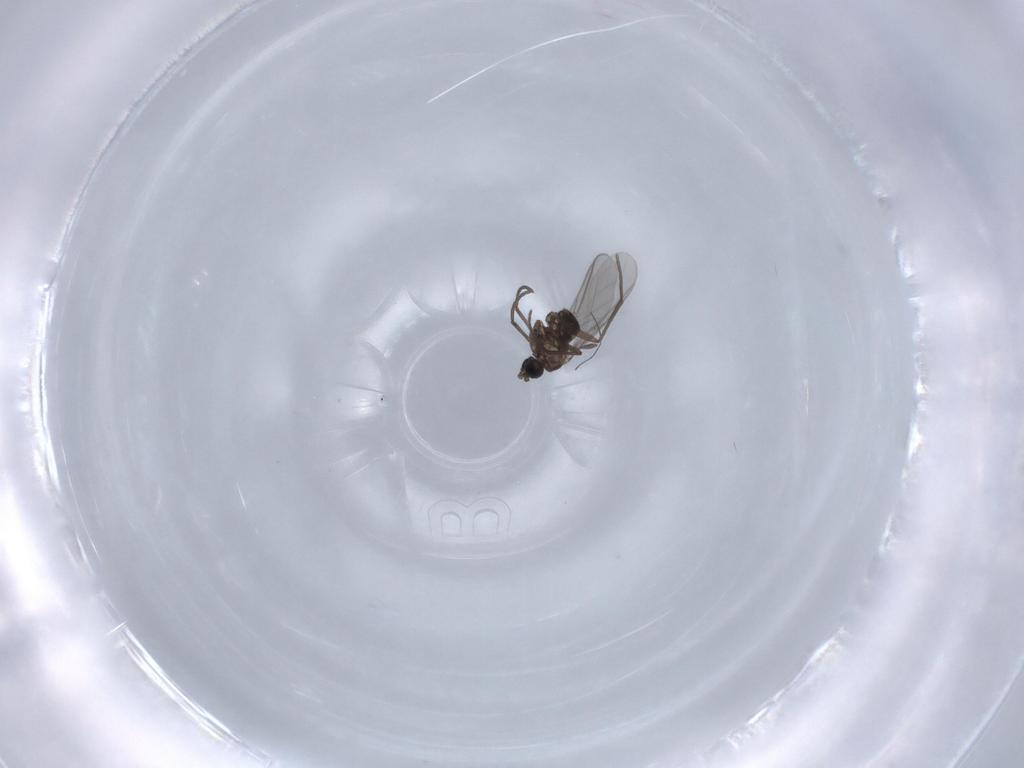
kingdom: Animalia
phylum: Arthropoda
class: Insecta
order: Diptera
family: Sciaridae
